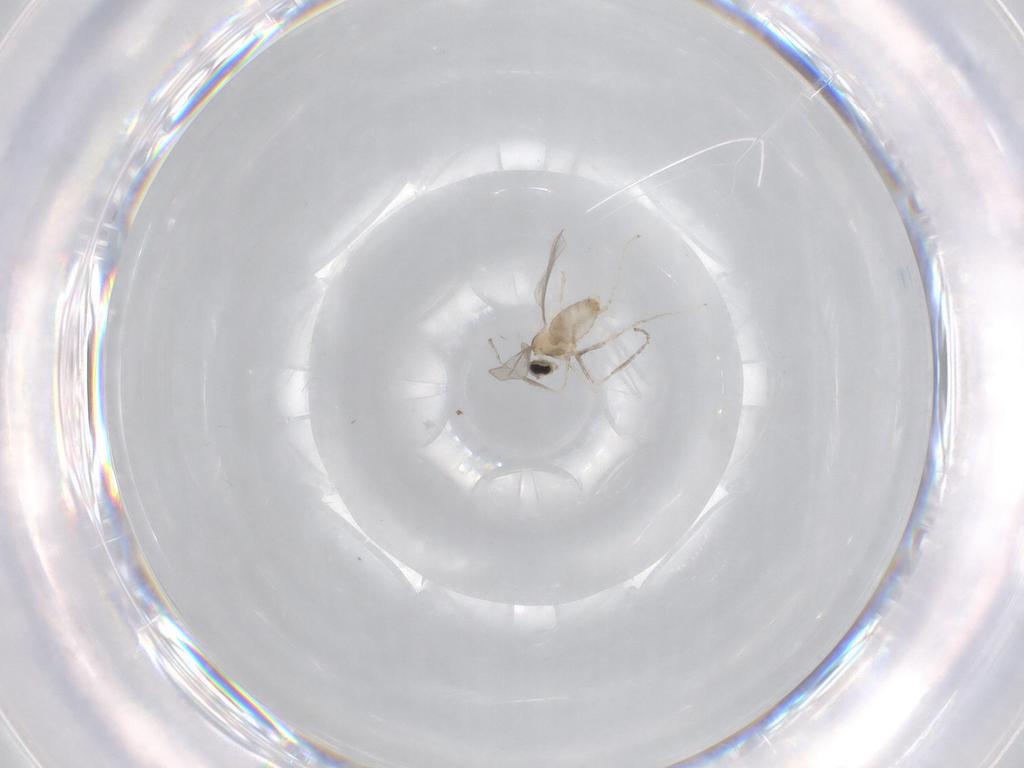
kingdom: Animalia
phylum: Arthropoda
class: Insecta
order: Diptera
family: Cecidomyiidae
